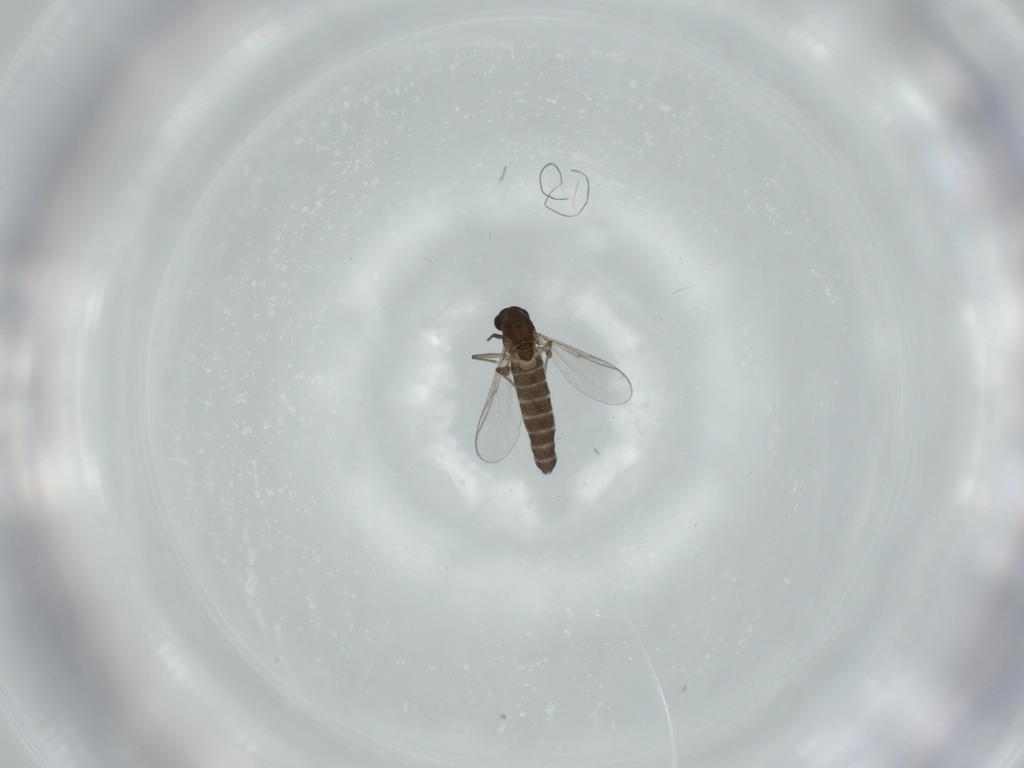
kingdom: Animalia
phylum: Arthropoda
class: Insecta
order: Diptera
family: Chironomidae
